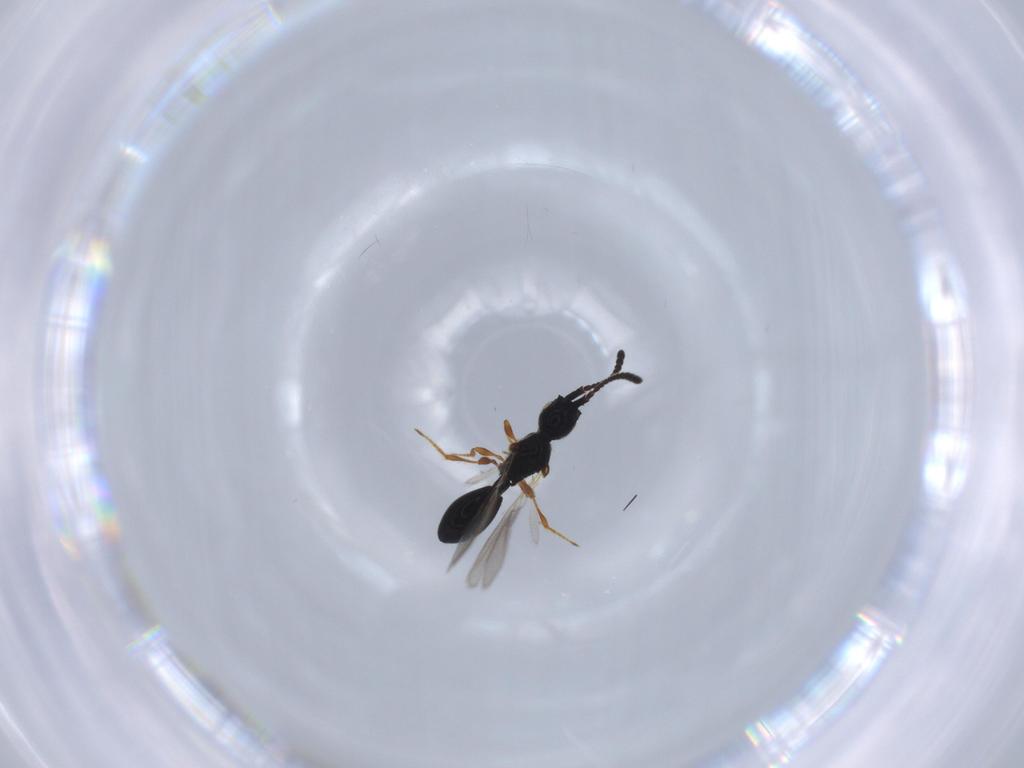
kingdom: Animalia
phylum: Arthropoda
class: Insecta
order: Hymenoptera
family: Diapriidae
